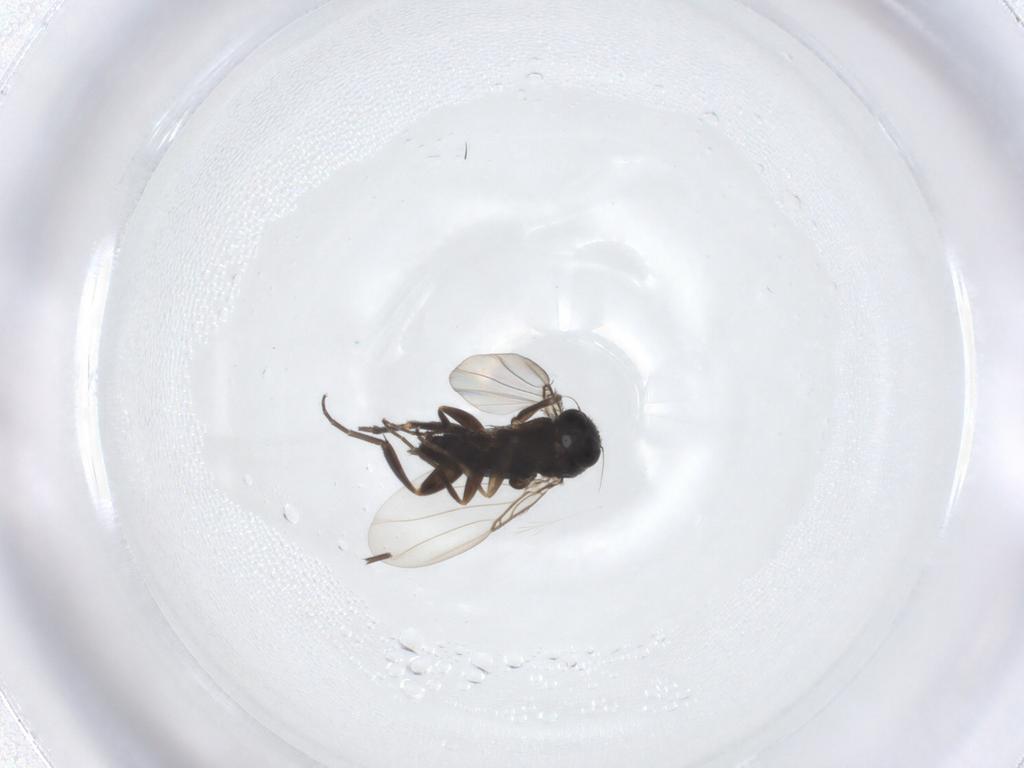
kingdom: Animalia
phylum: Arthropoda
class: Insecta
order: Diptera
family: Phoridae
